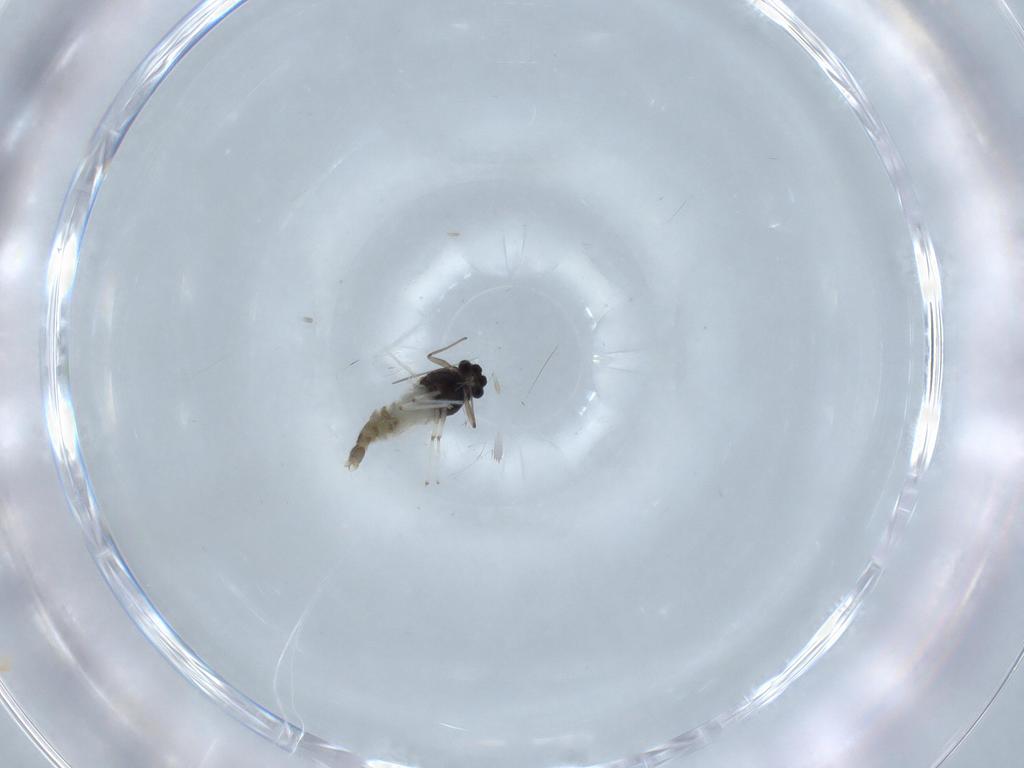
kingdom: Animalia
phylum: Arthropoda
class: Insecta
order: Diptera
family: Chironomidae
